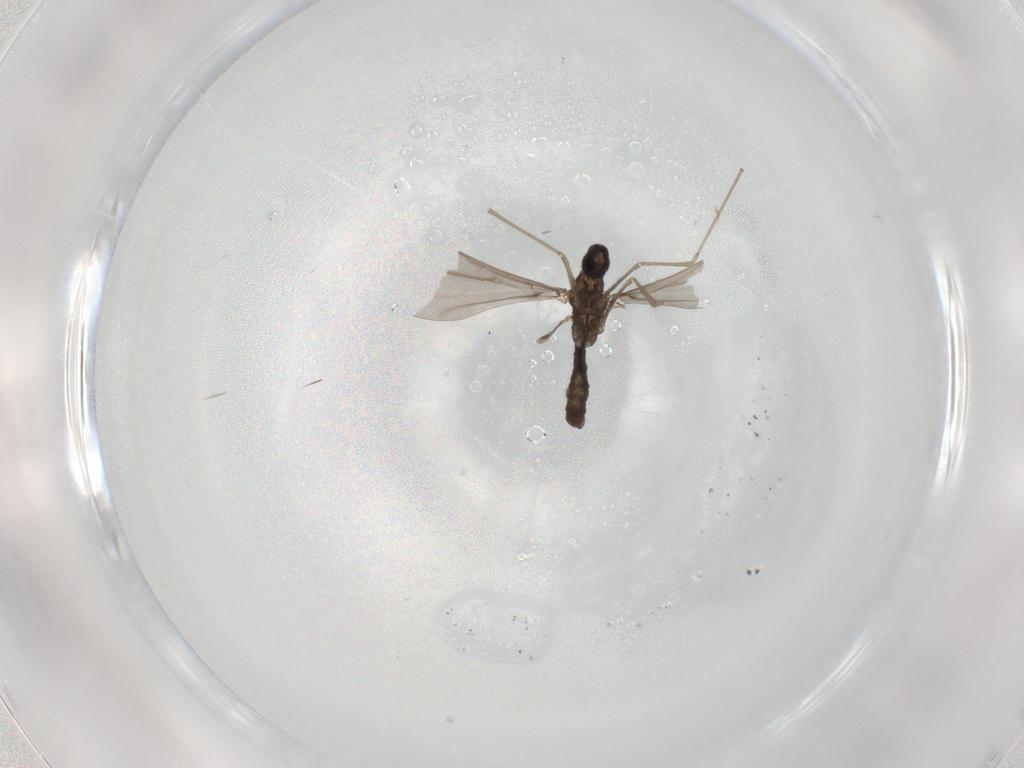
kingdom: Animalia
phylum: Arthropoda
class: Insecta
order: Diptera
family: Cecidomyiidae
